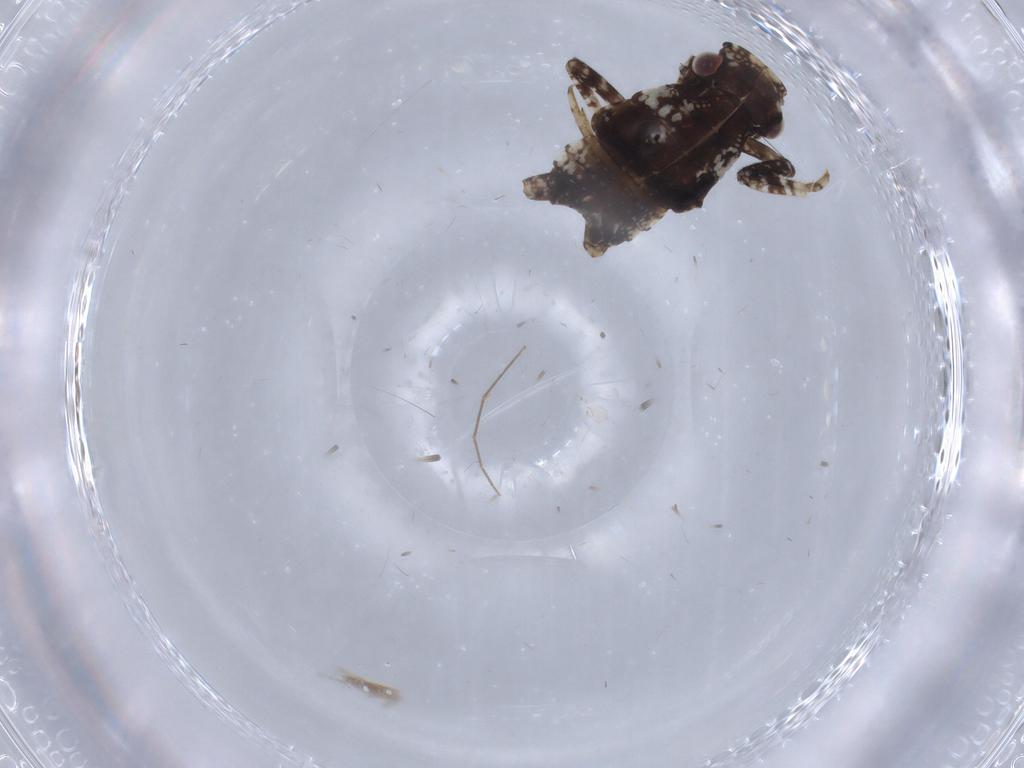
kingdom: Animalia
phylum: Arthropoda
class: Insecta
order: Hemiptera
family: Fulgoridae
